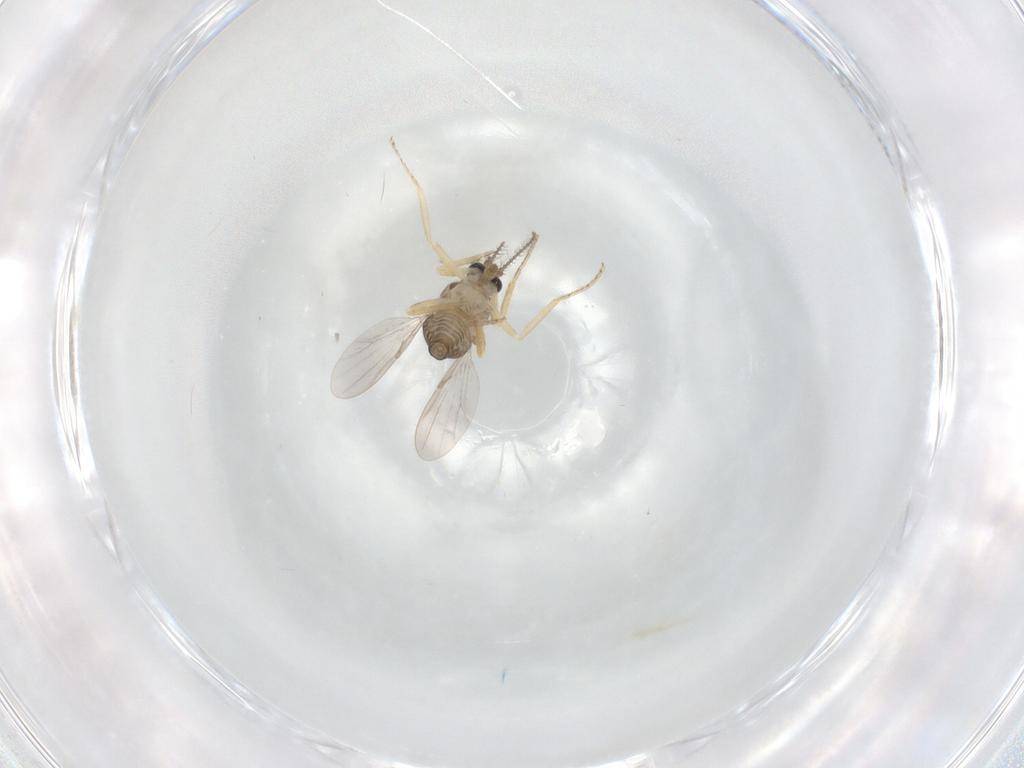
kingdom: Animalia
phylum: Arthropoda
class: Insecta
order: Diptera
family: Ceratopogonidae
